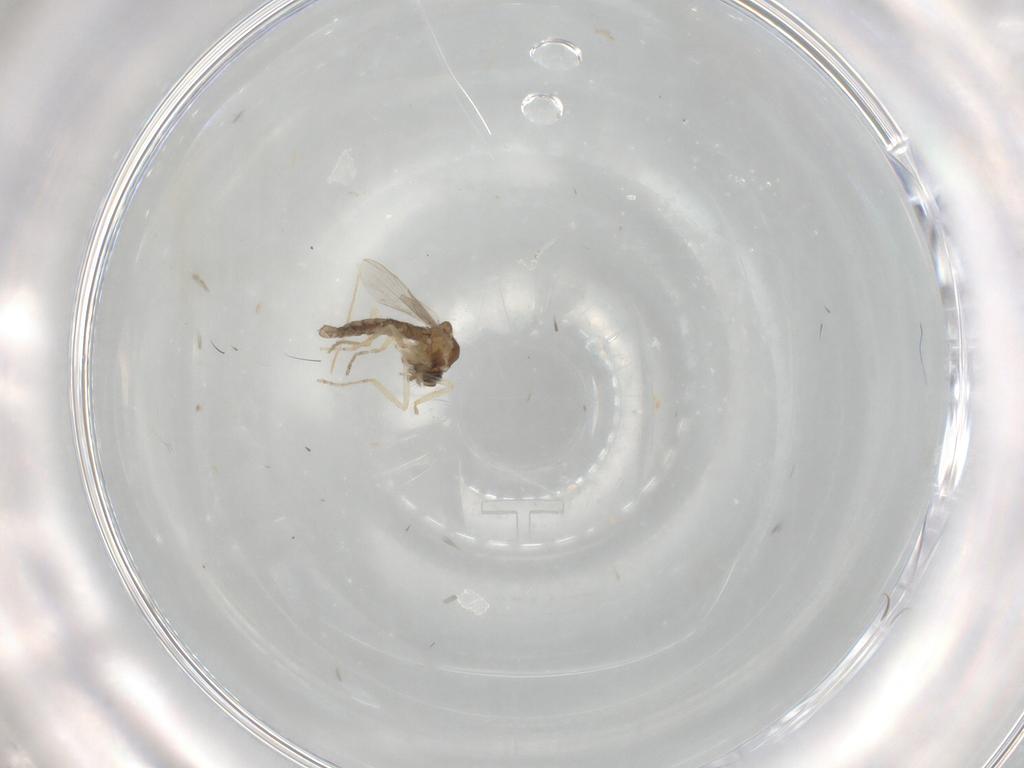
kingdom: Animalia
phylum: Arthropoda
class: Insecta
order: Diptera
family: Ceratopogonidae
